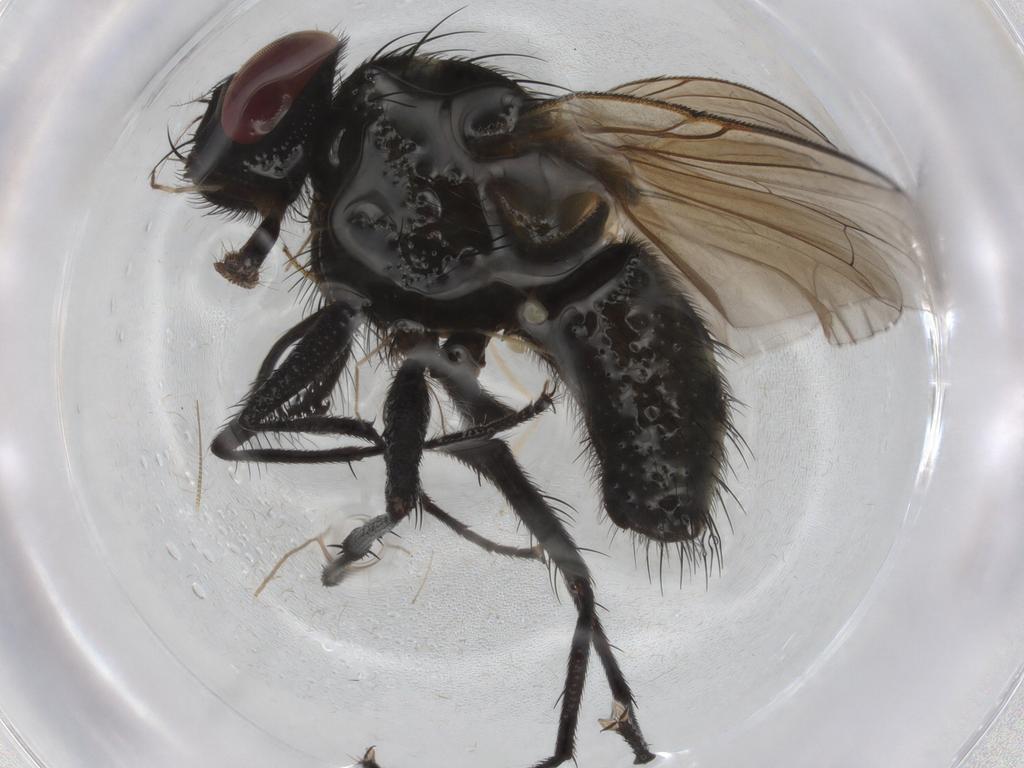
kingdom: Animalia
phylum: Arthropoda
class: Insecta
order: Diptera
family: Muscidae
